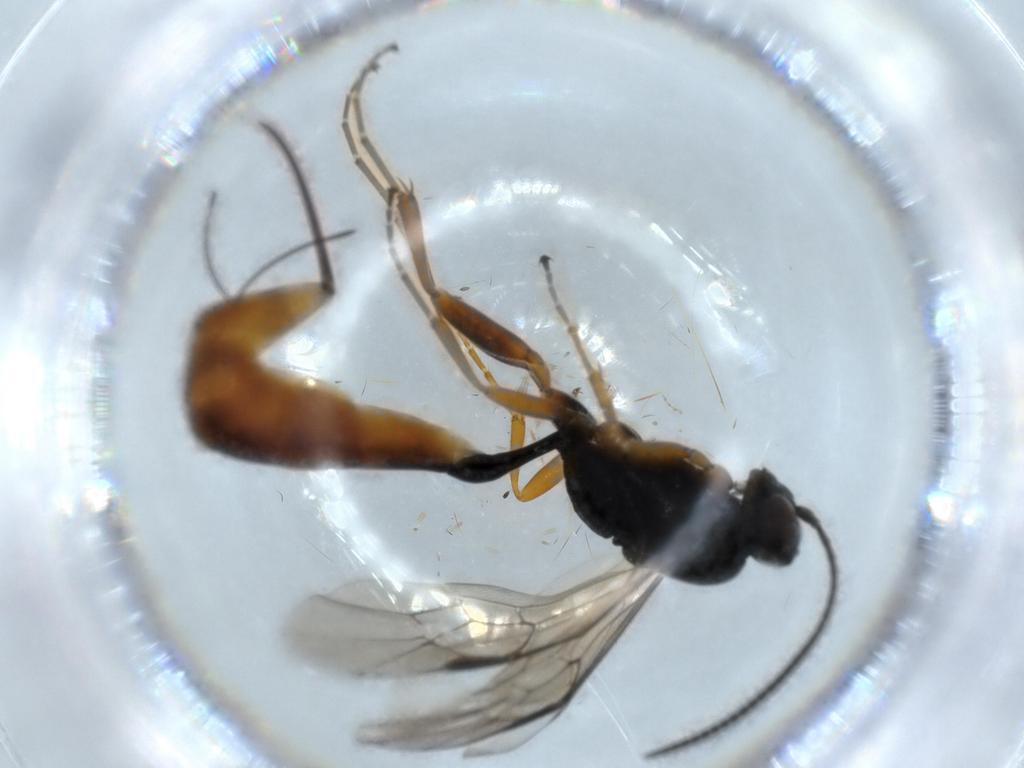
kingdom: Animalia
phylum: Arthropoda
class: Insecta
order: Hymenoptera
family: Ichneumonidae
